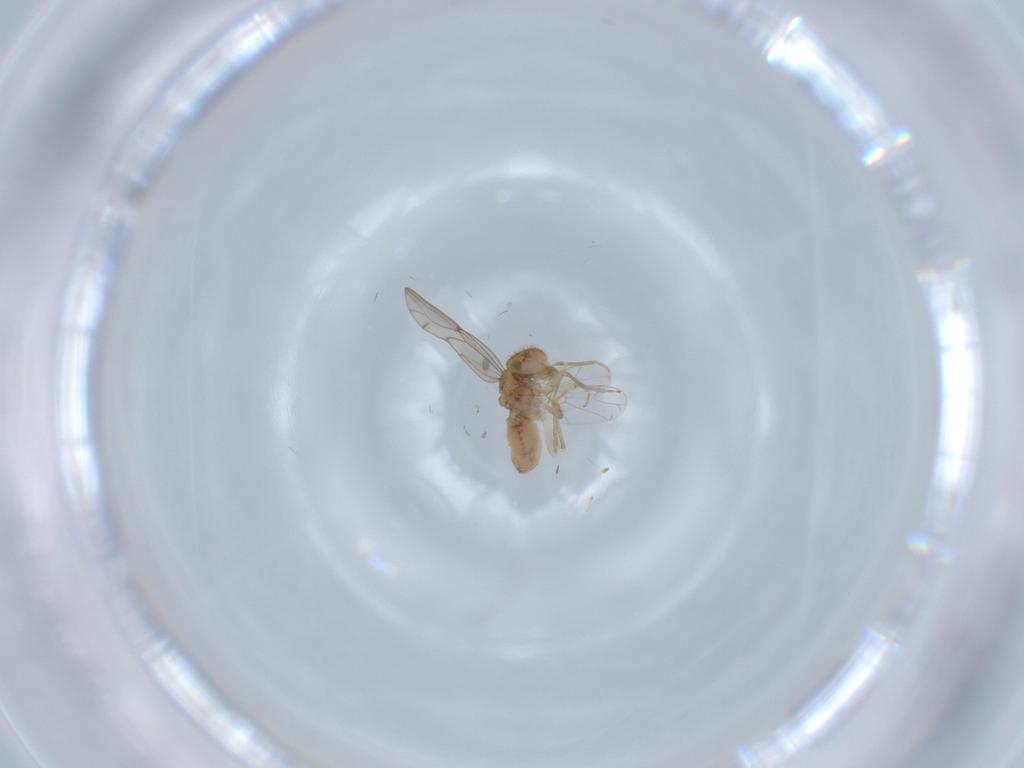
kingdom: Animalia
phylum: Arthropoda
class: Insecta
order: Psocodea
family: Ectopsocidae
